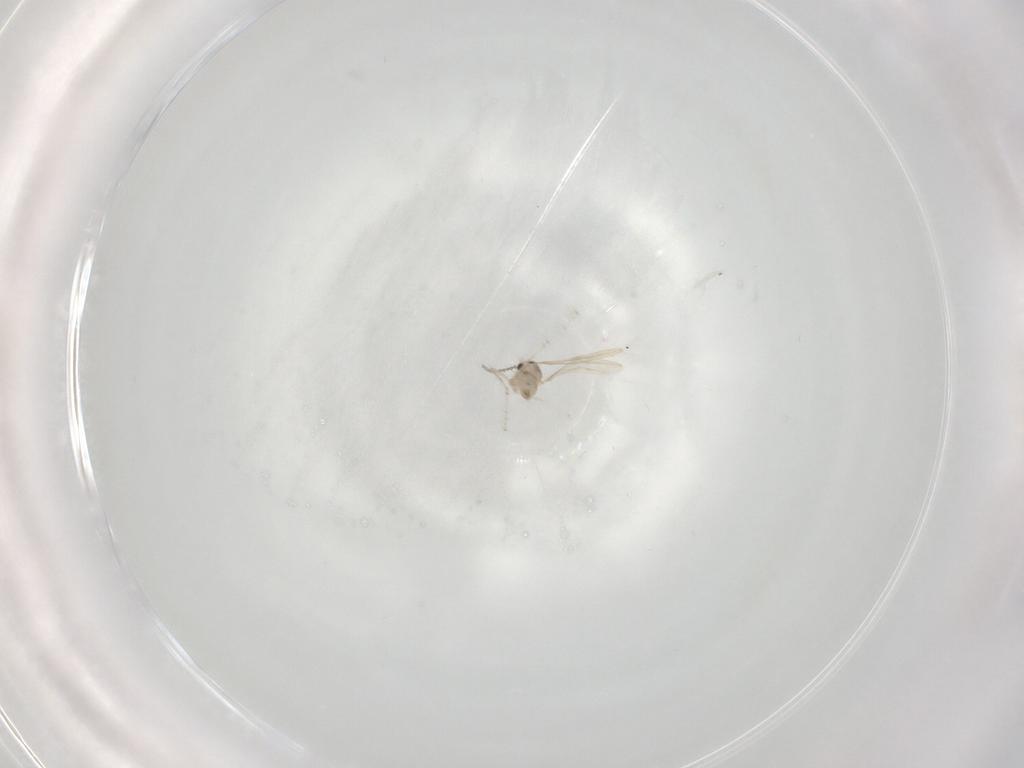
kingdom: Animalia
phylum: Arthropoda
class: Insecta
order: Diptera
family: Cecidomyiidae
